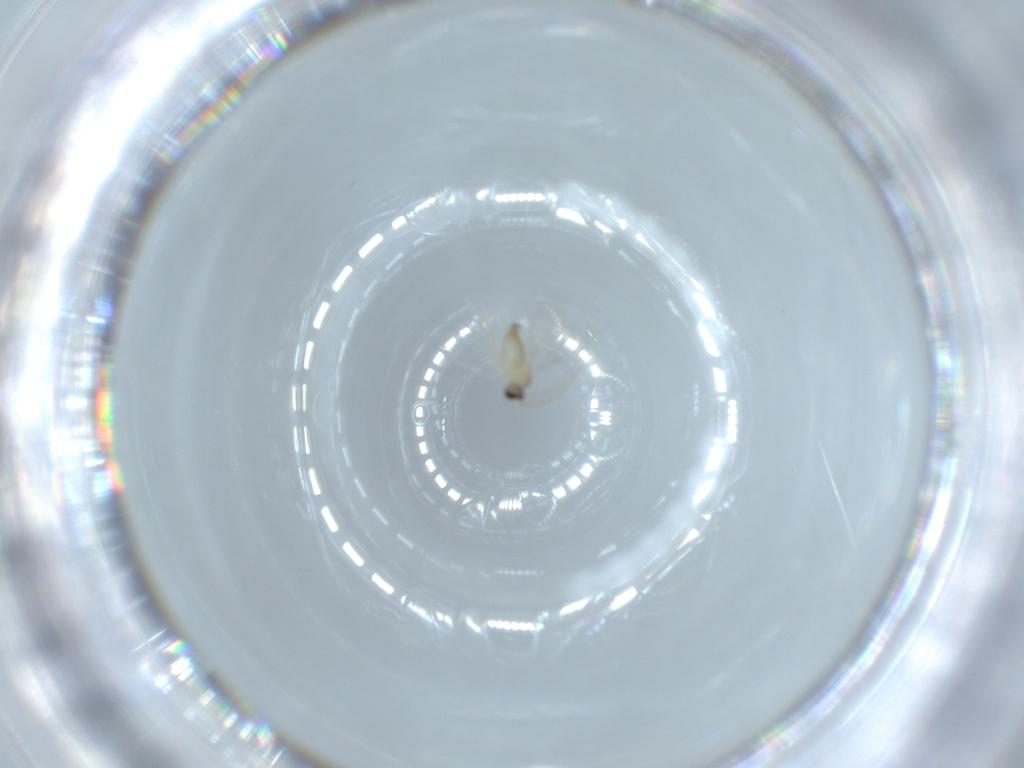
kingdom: Animalia
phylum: Arthropoda
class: Insecta
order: Diptera
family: Cecidomyiidae
